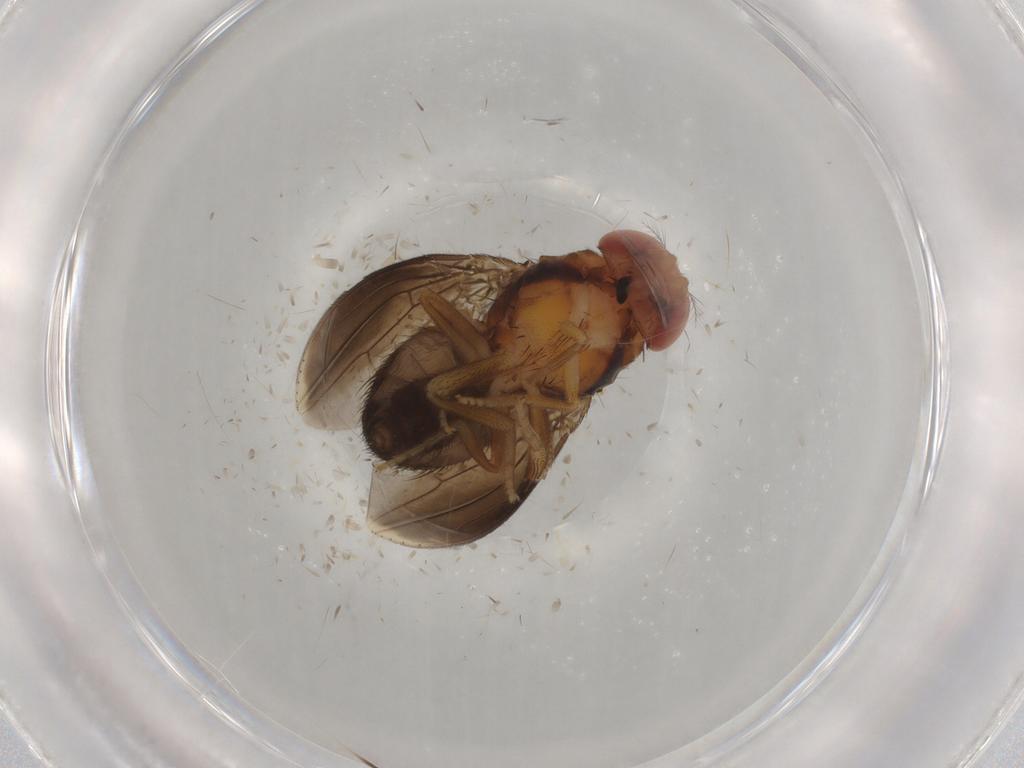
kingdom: Animalia
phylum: Arthropoda
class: Insecta
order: Diptera
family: Drosophilidae
